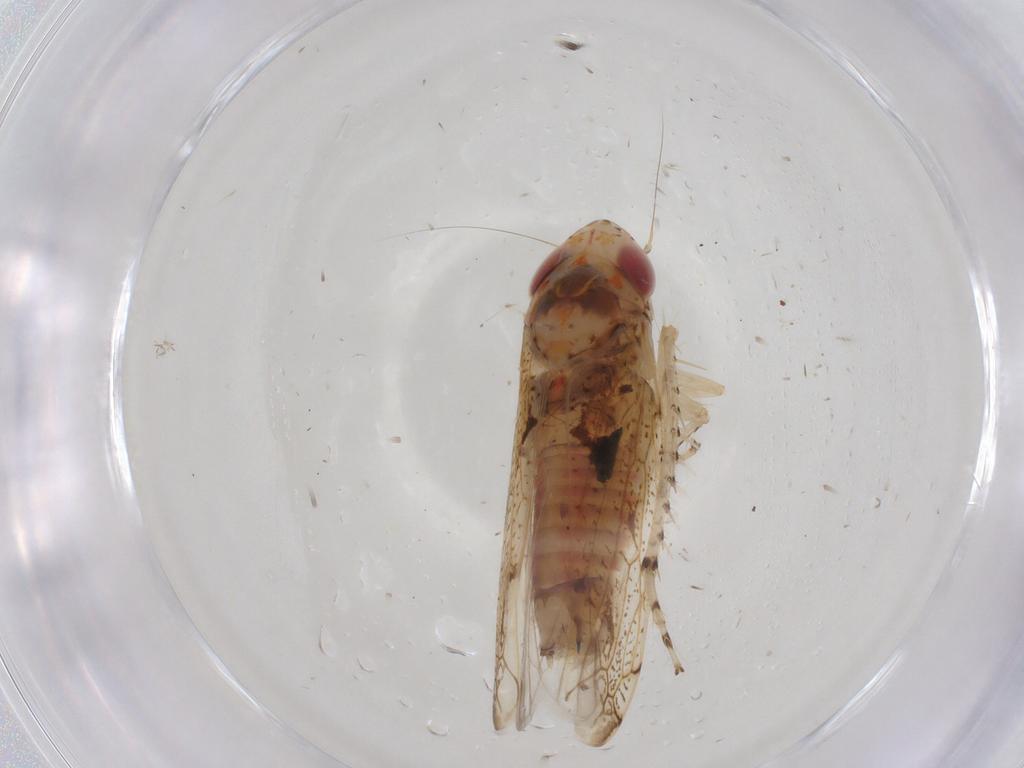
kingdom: Animalia
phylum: Arthropoda
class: Insecta
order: Hemiptera
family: Cicadellidae
